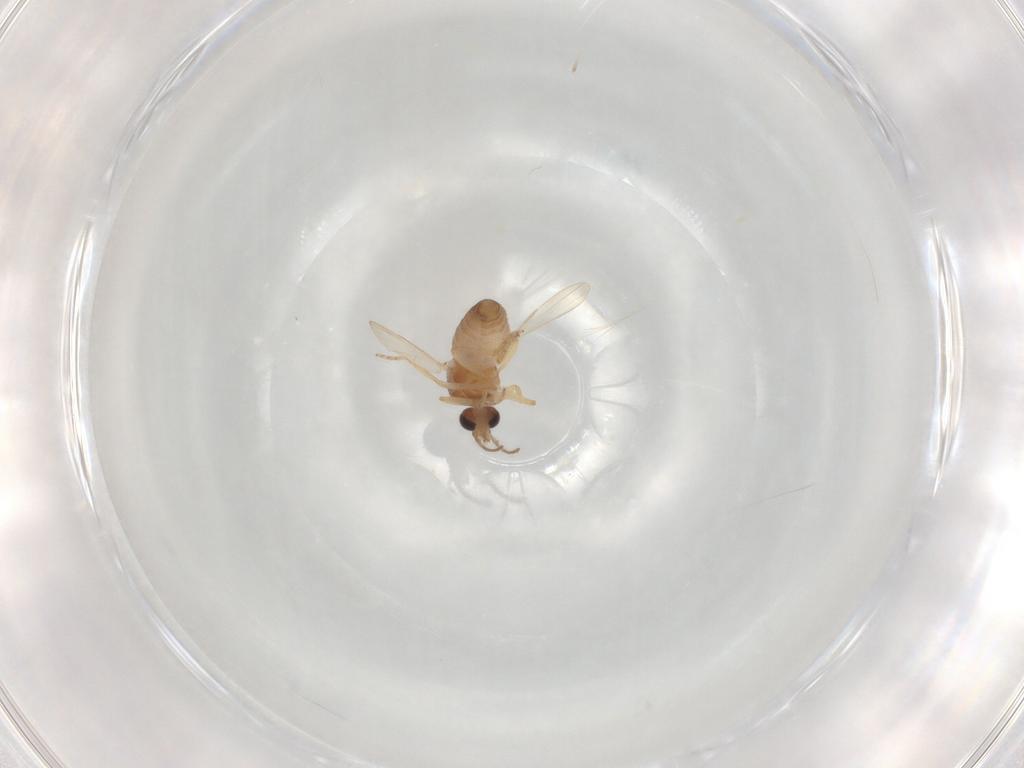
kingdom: Animalia
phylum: Arthropoda
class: Insecta
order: Diptera
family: Ceratopogonidae
